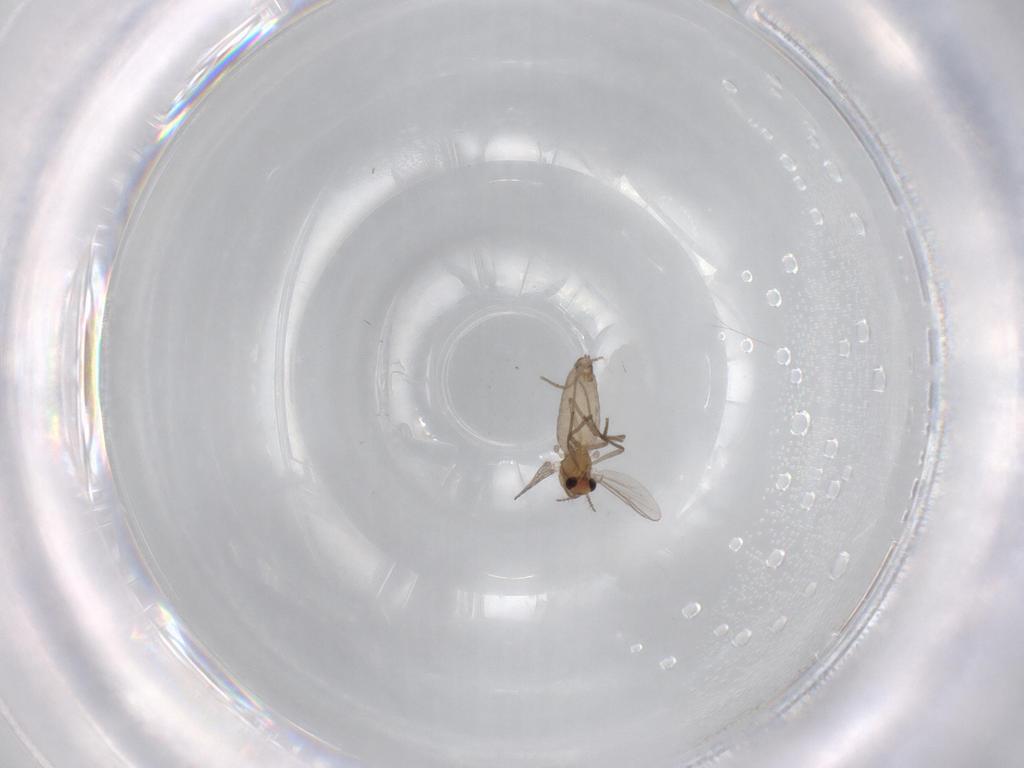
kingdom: Animalia
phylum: Arthropoda
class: Insecta
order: Diptera
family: Chironomidae
